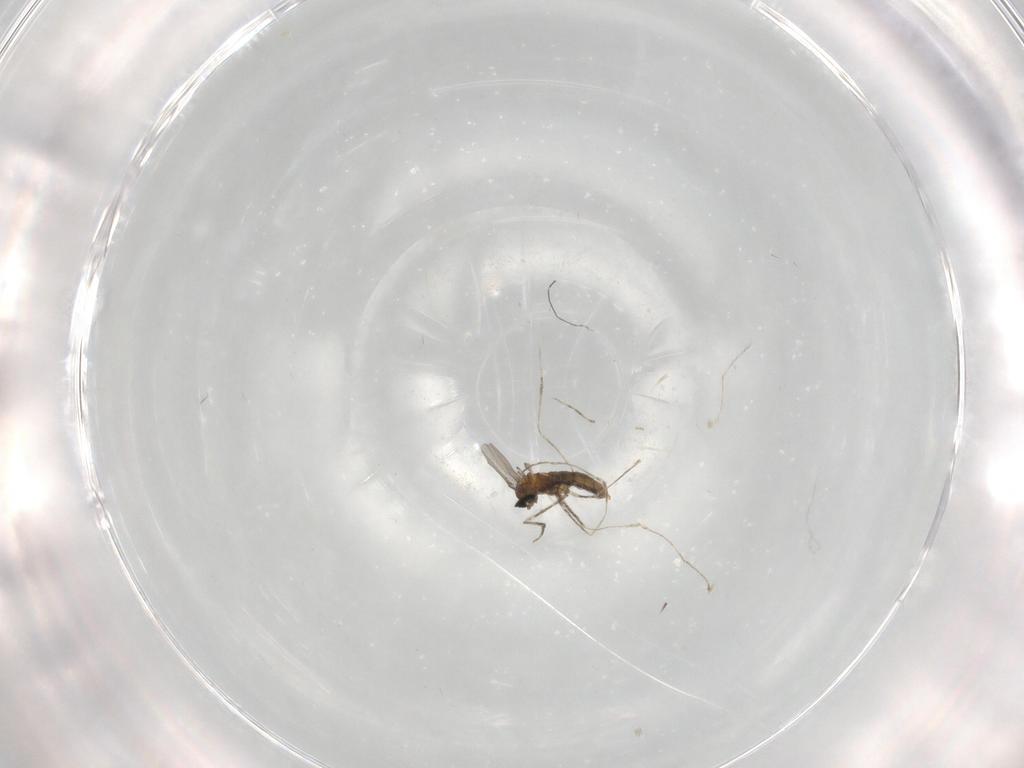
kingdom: Animalia
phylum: Arthropoda
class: Insecta
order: Diptera
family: Cecidomyiidae
